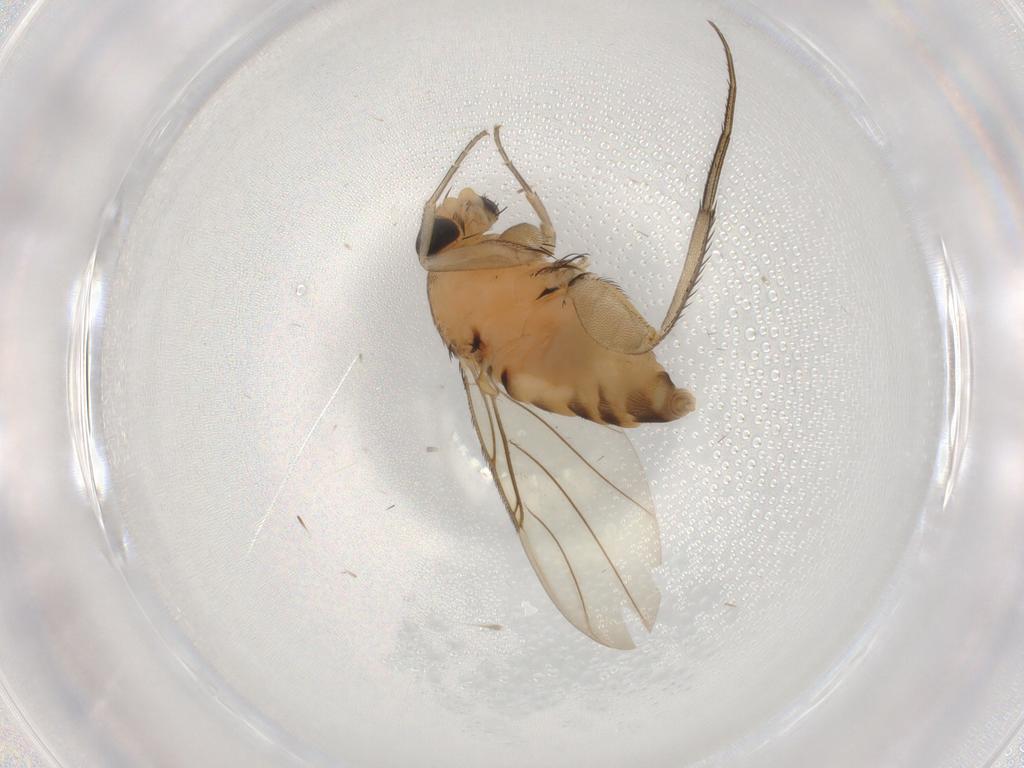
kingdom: Animalia
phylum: Arthropoda
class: Insecta
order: Diptera
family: Phoridae
